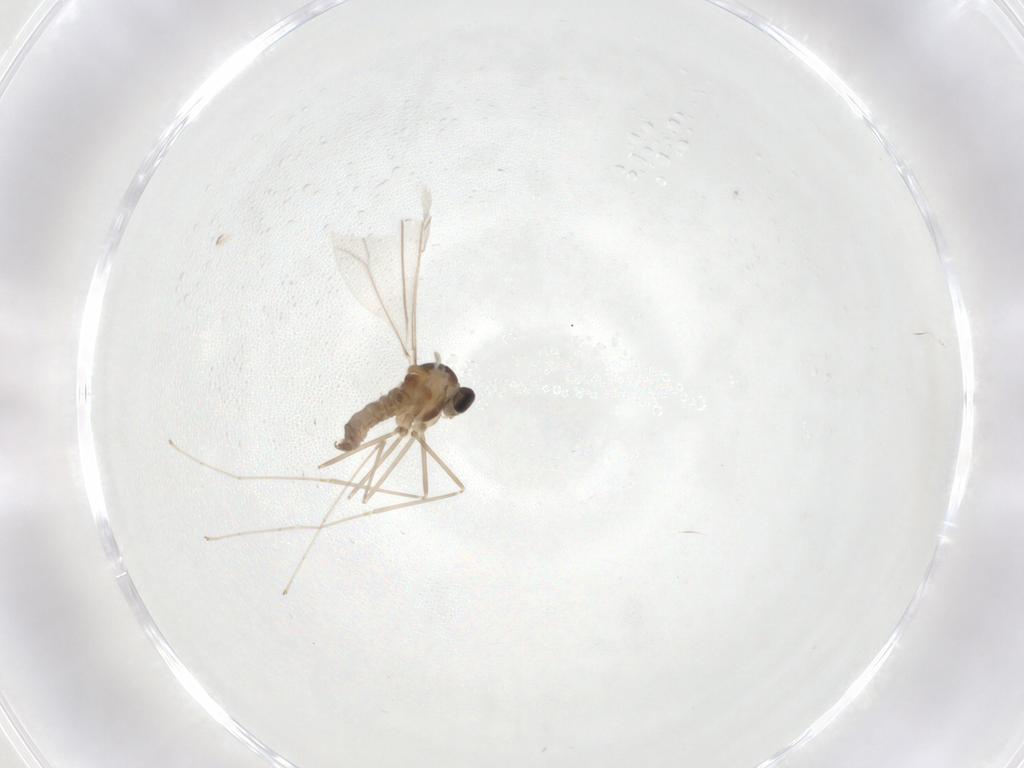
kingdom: Animalia
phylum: Arthropoda
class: Insecta
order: Diptera
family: Cecidomyiidae
